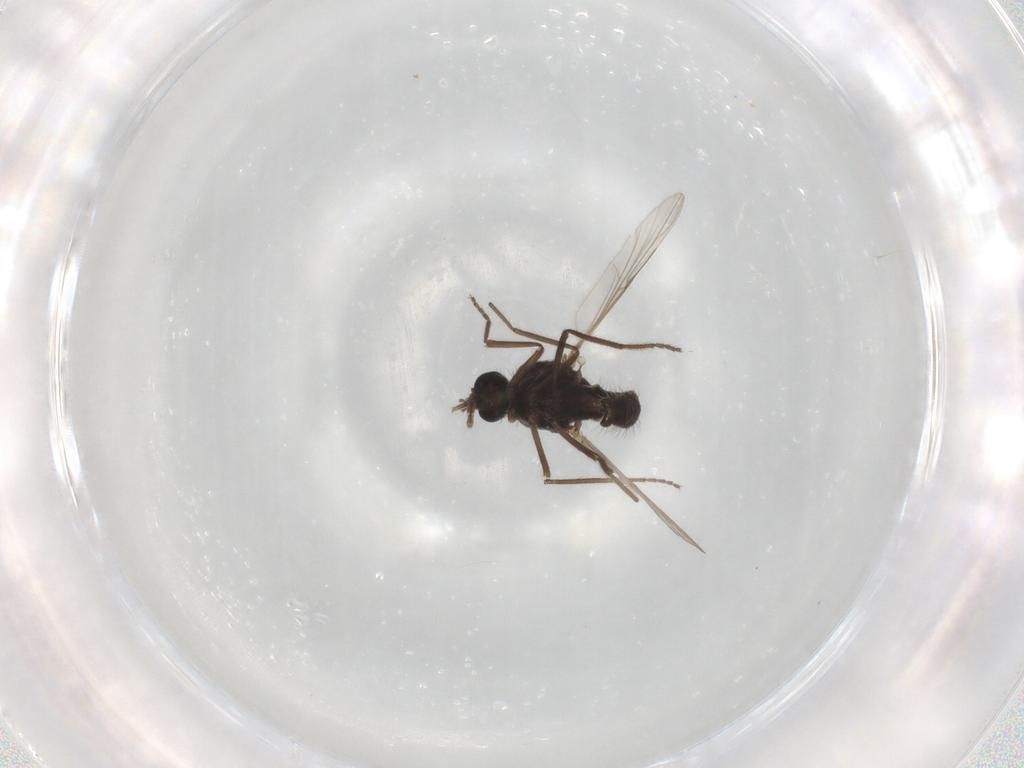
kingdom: Animalia
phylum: Arthropoda
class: Insecta
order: Diptera
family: Ceratopogonidae
